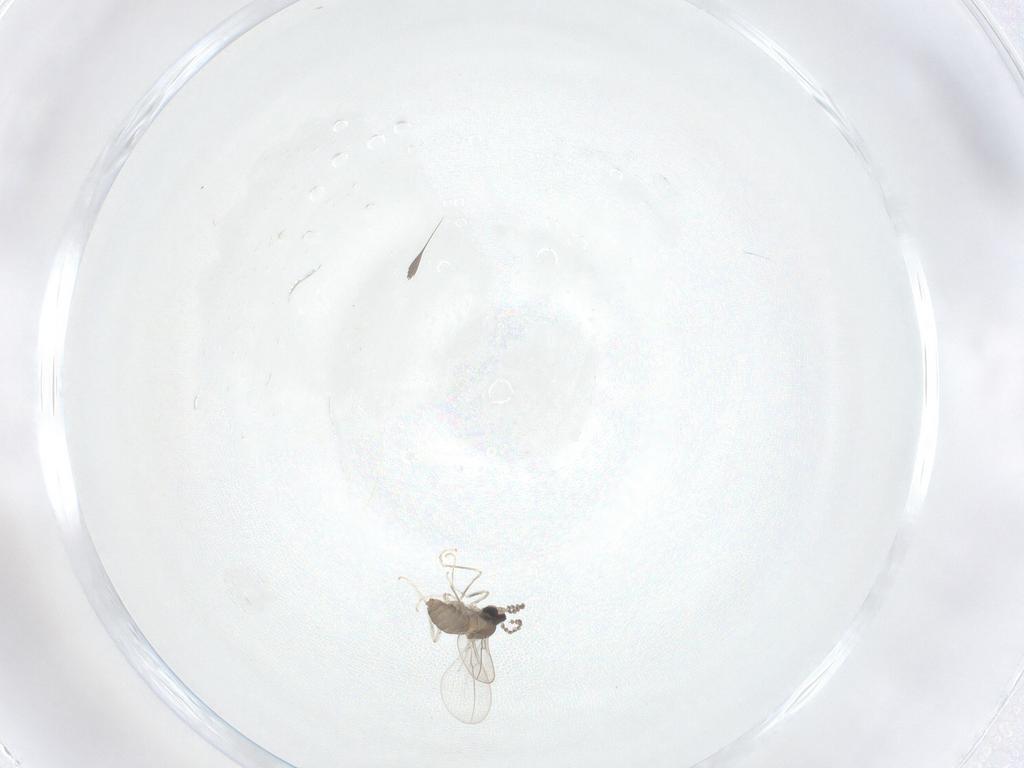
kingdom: Animalia
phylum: Arthropoda
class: Insecta
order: Diptera
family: Cecidomyiidae
